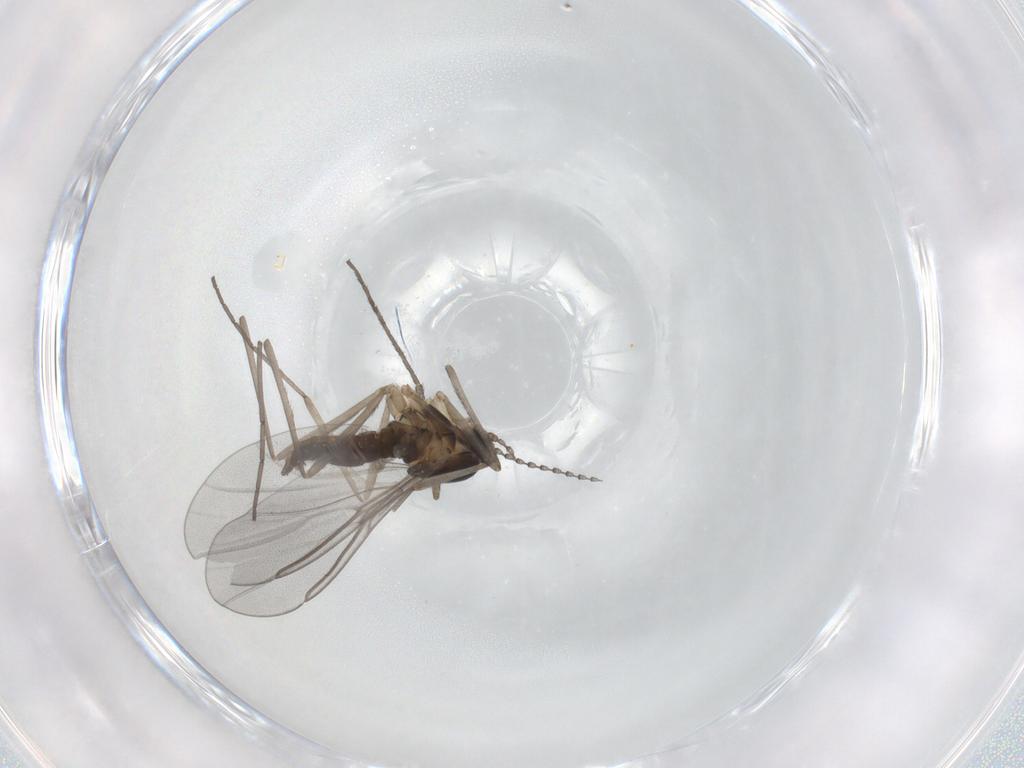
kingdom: Animalia
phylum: Arthropoda
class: Insecta
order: Diptera
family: Cecidomyiidae
